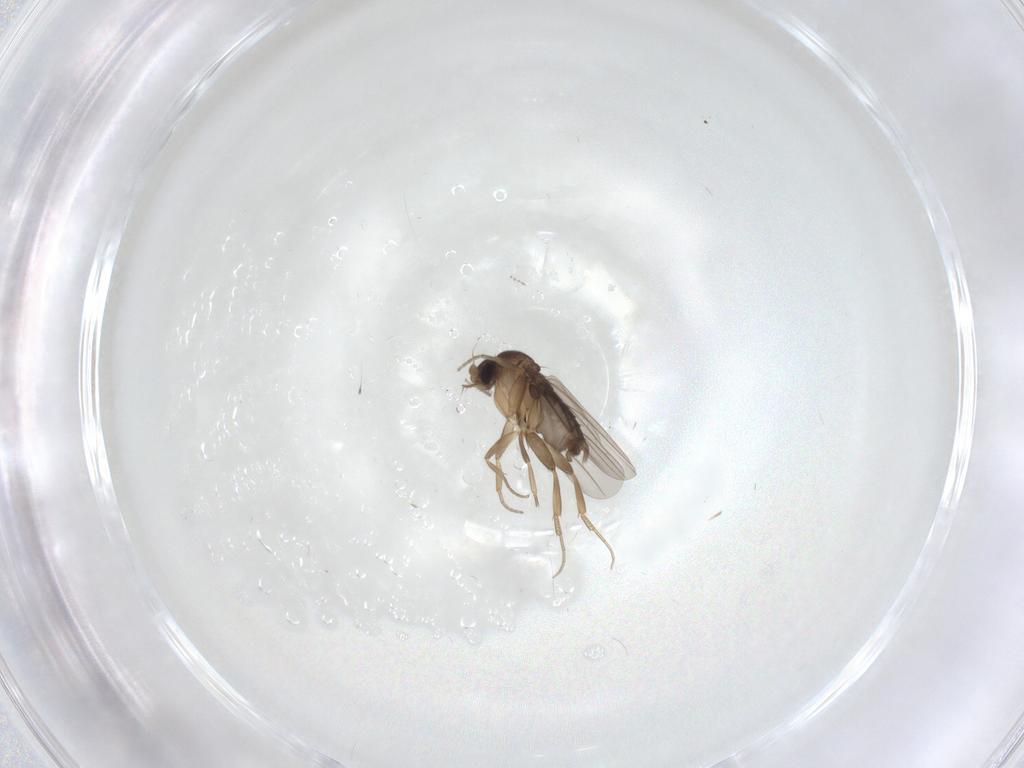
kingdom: Animalia
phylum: Arthropoda
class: Insecta
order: Diptera
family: Cecidomyiidae
